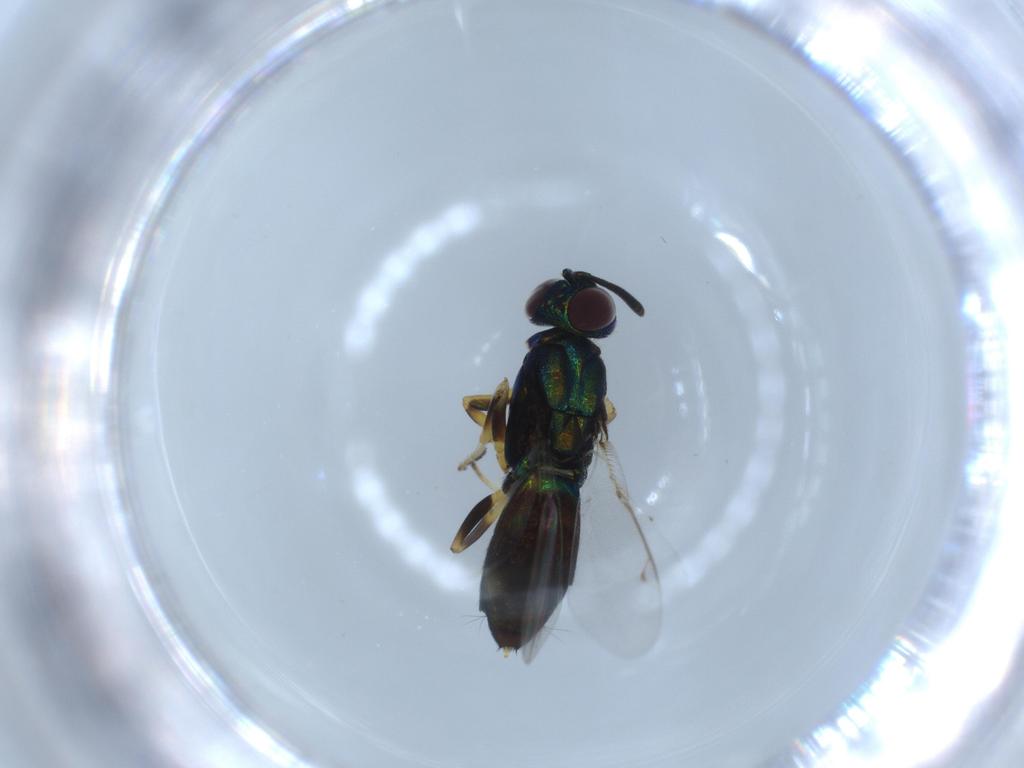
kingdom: Animalia
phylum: Arthropoda
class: Insecta
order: Hymenoptera
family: Eupelmidae
